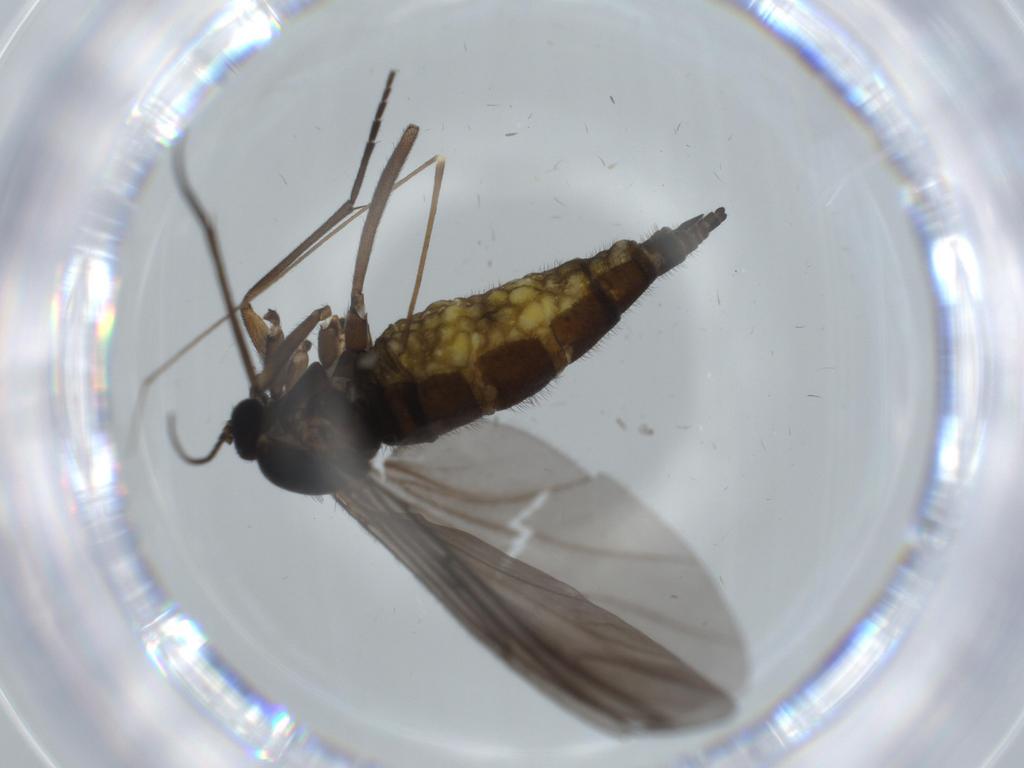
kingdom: Animalia
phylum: Arthropoda
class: Insecta
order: Diptera
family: Sciaridae
